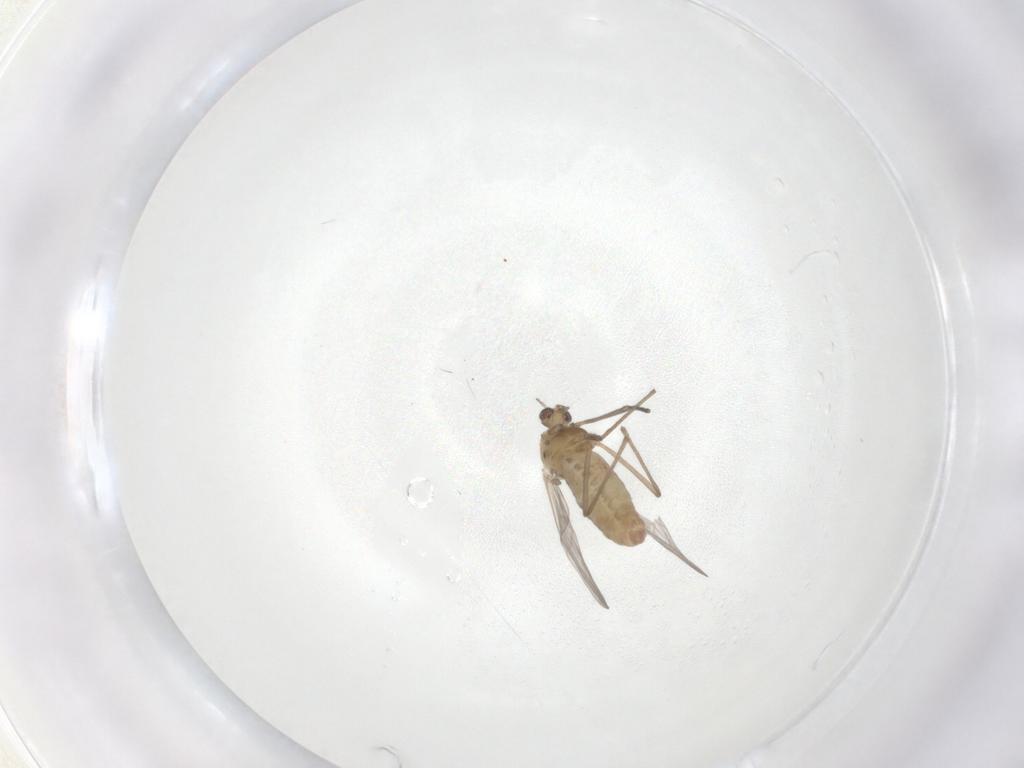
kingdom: Animalia
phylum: Arthropoda
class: Insecta
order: Diptera
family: Chironomidae
